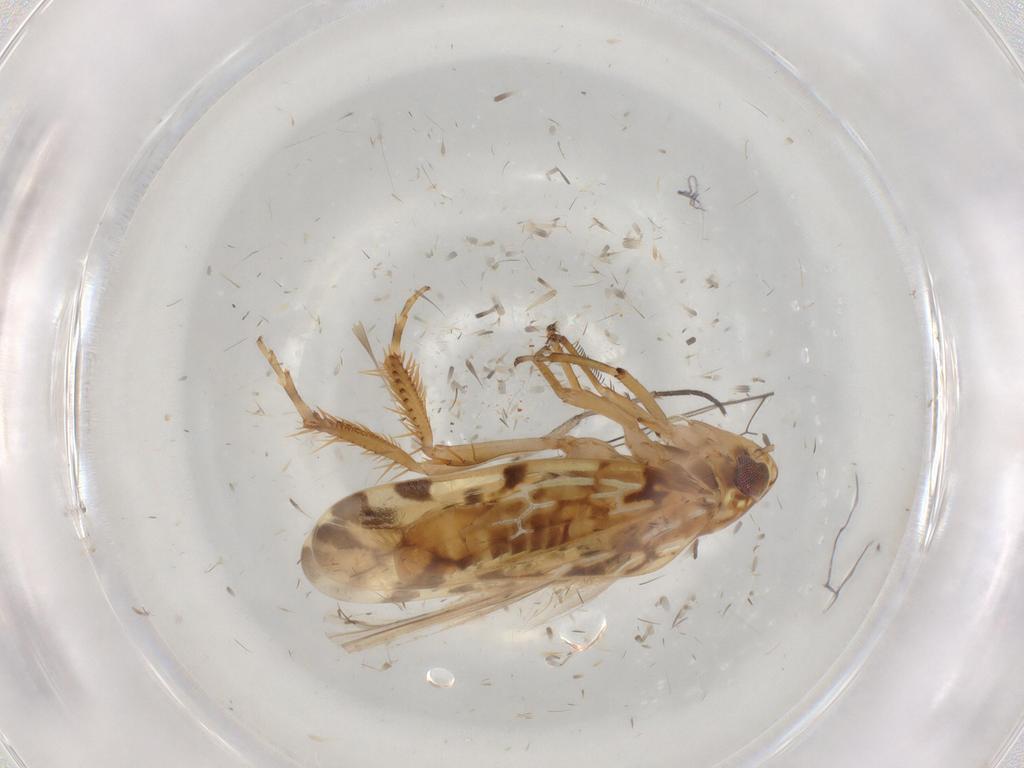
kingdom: Animalia
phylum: Arthropoda
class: Insecta
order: Hemiptera
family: Cicadellidae
